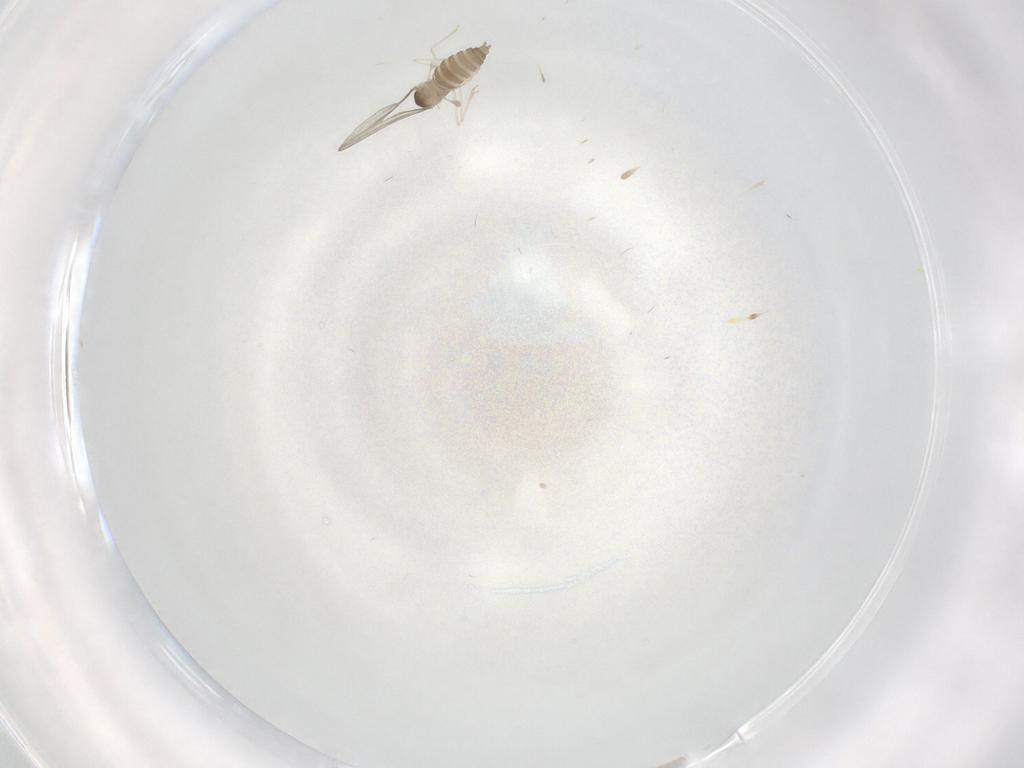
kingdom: Animalia
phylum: Arthropoda
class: Insecta
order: Diptera
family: Cecidomyiidae
